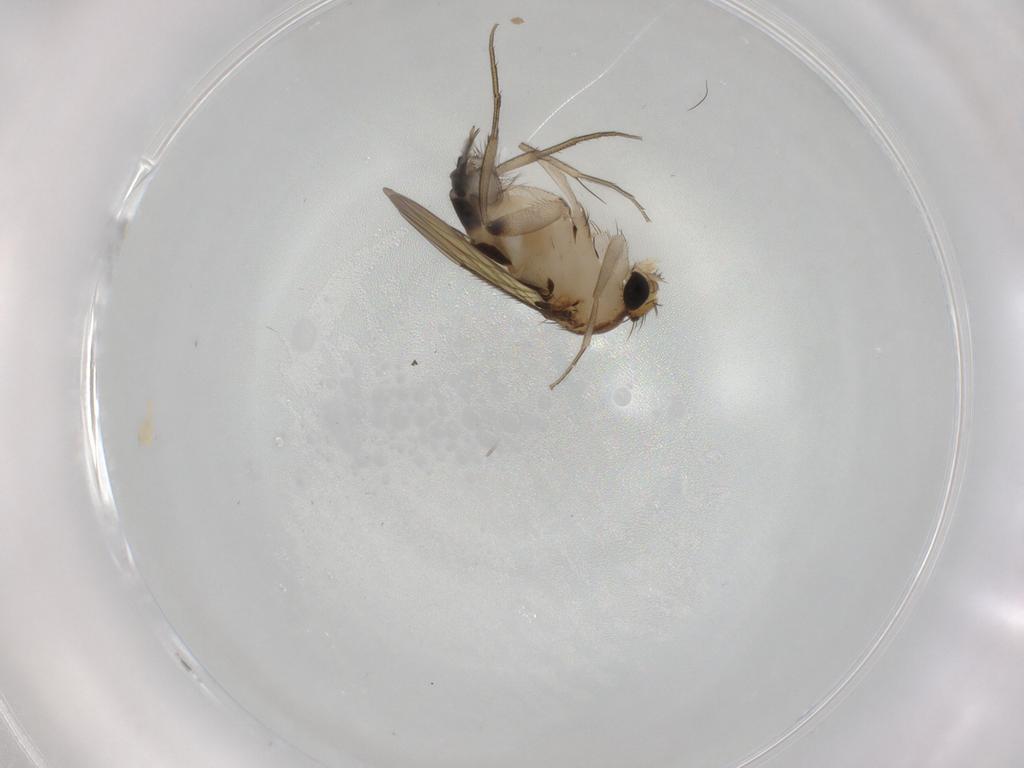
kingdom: Animalia
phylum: Arthropoda
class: Insecta
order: Diptera
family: Phoridae
